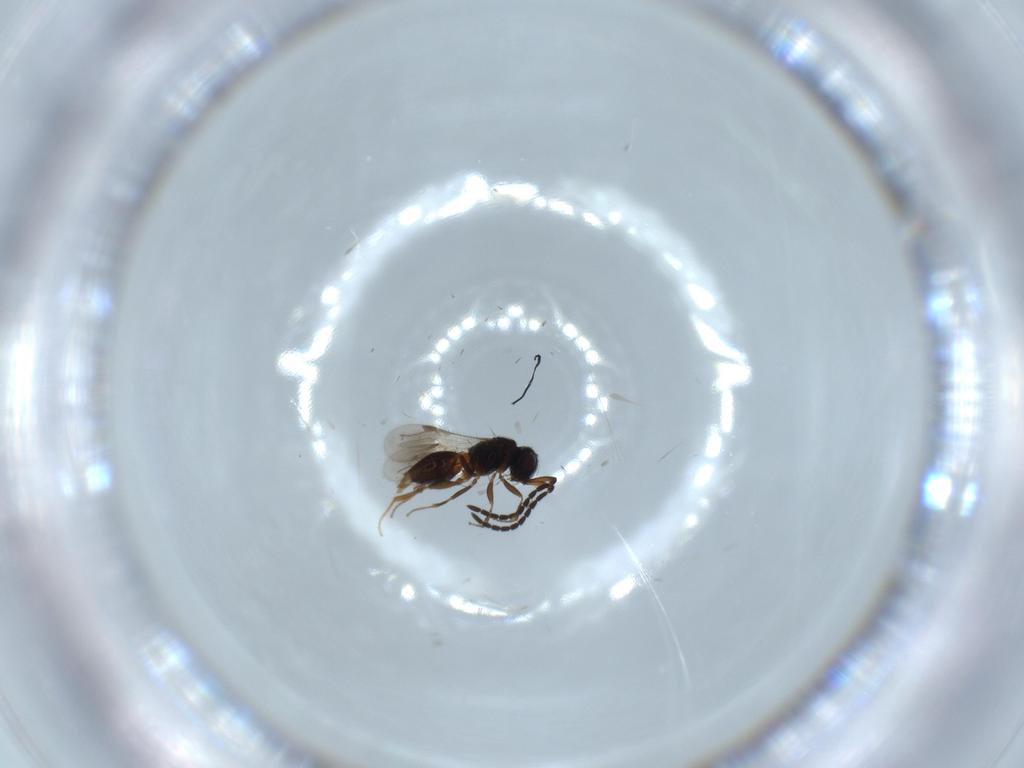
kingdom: Animalia
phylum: Arthropoda
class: Insecta
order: Hymenoptera
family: Megaspilidae
